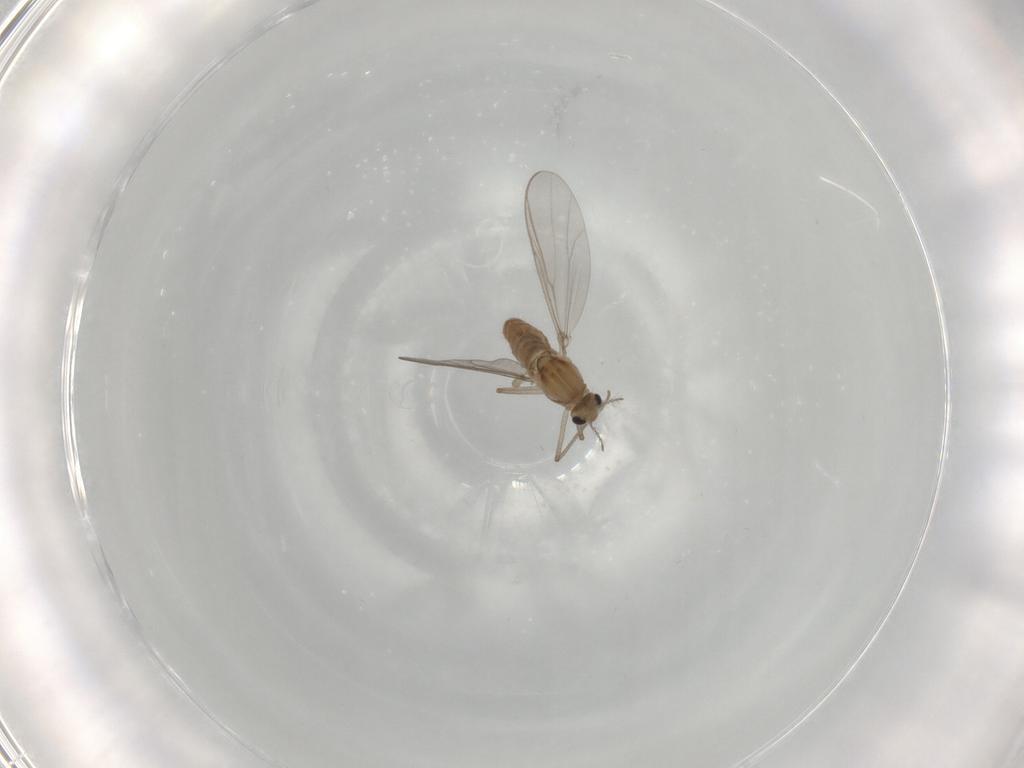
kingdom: Animalia
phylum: Arthropoda
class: Insecta
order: Diptera
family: Chironomidae
